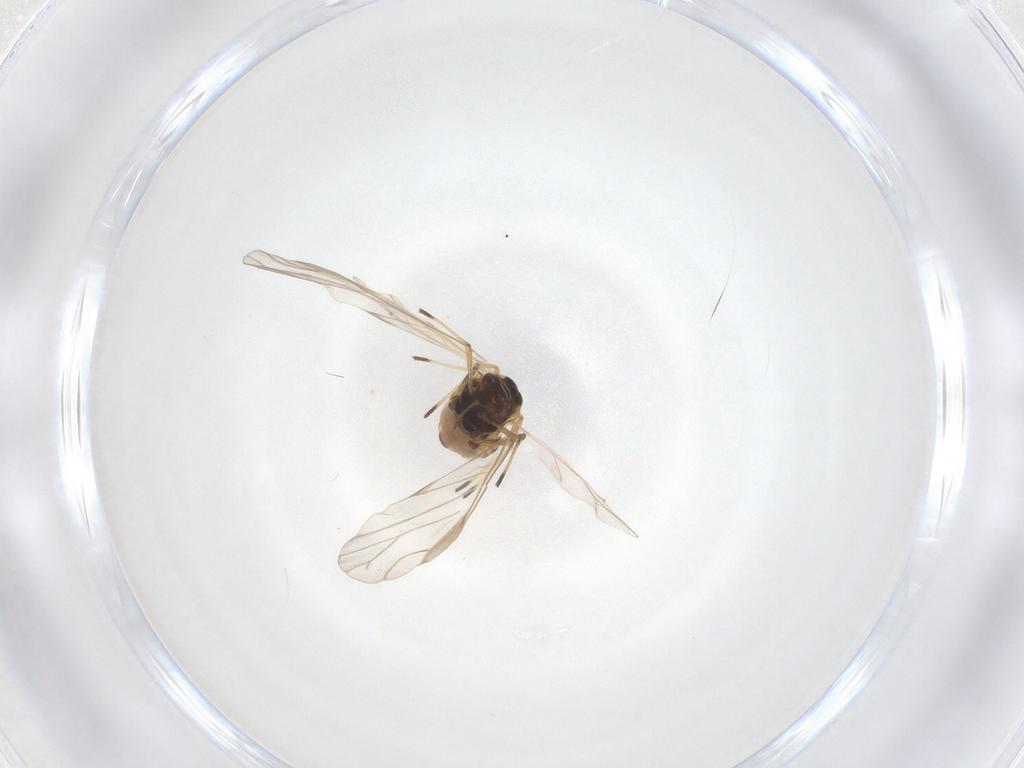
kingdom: Animalia
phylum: Arthropoda
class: Insecta
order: Hemiptera
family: Aphididae
